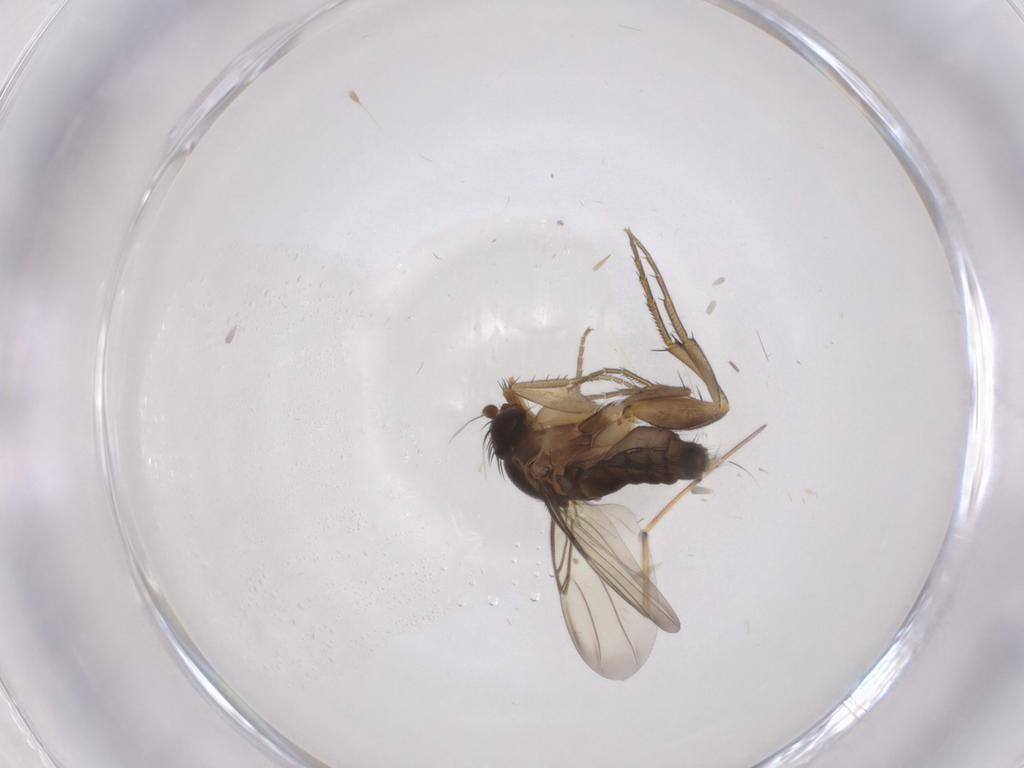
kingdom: Animalia
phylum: Arthropoda
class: Insecta
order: Diptera
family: Phoridae
